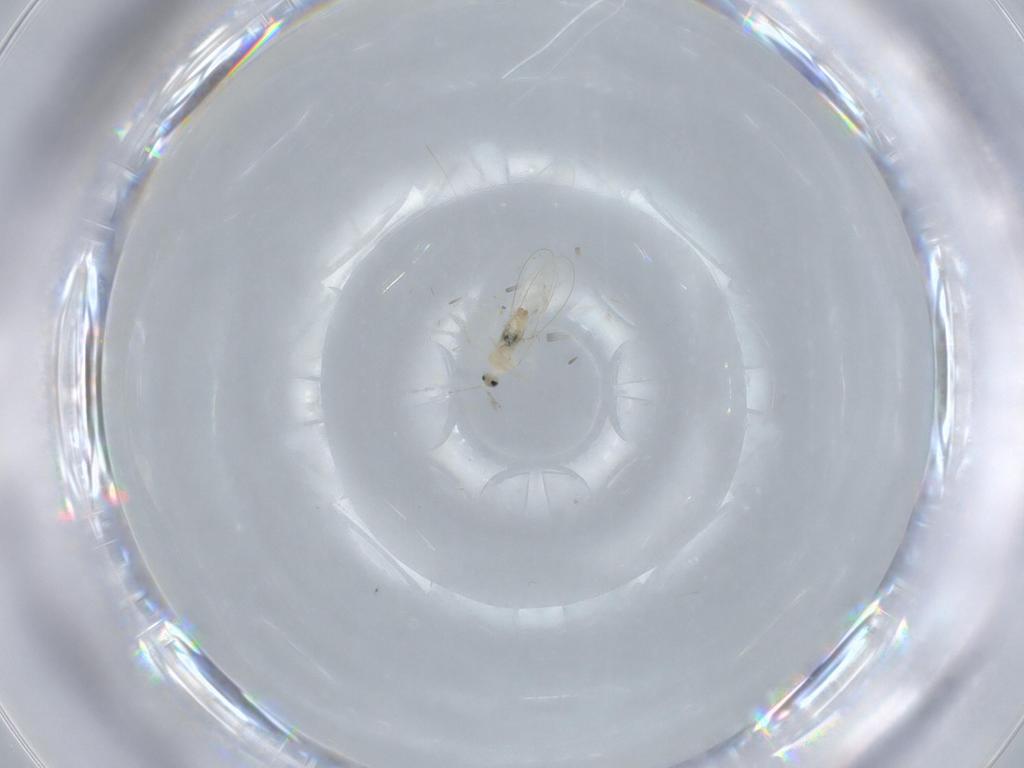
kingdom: Animalia
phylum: Arthropoda
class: Insecta
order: Diptera
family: Cecidomyiidae
